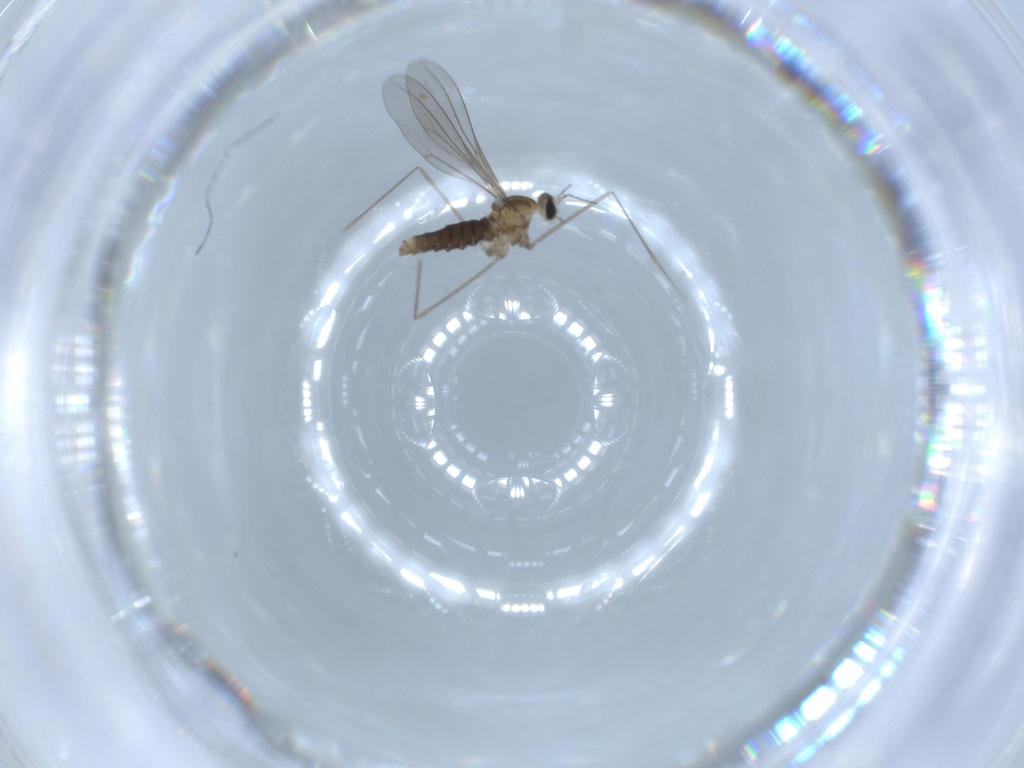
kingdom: Animalia
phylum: Arthropoda
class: Insecta
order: Diptera
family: Cecidomyiidae
